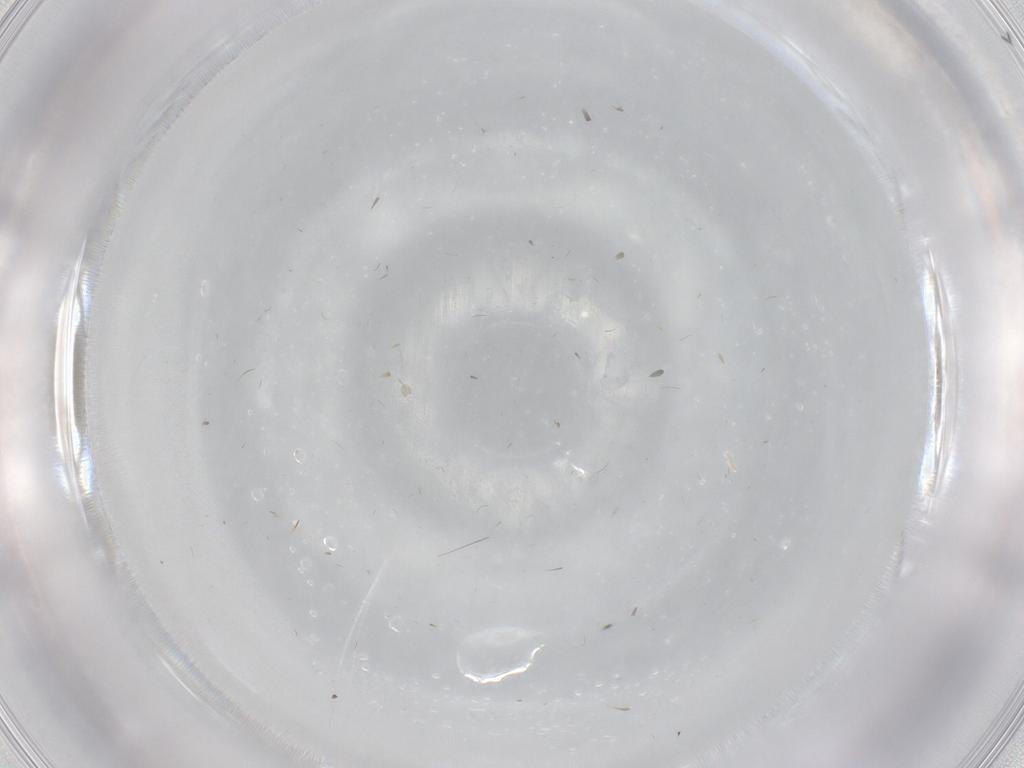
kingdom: Animalia
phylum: Arthropoda
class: Insecta
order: Diptera
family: Cecidomyiidae
